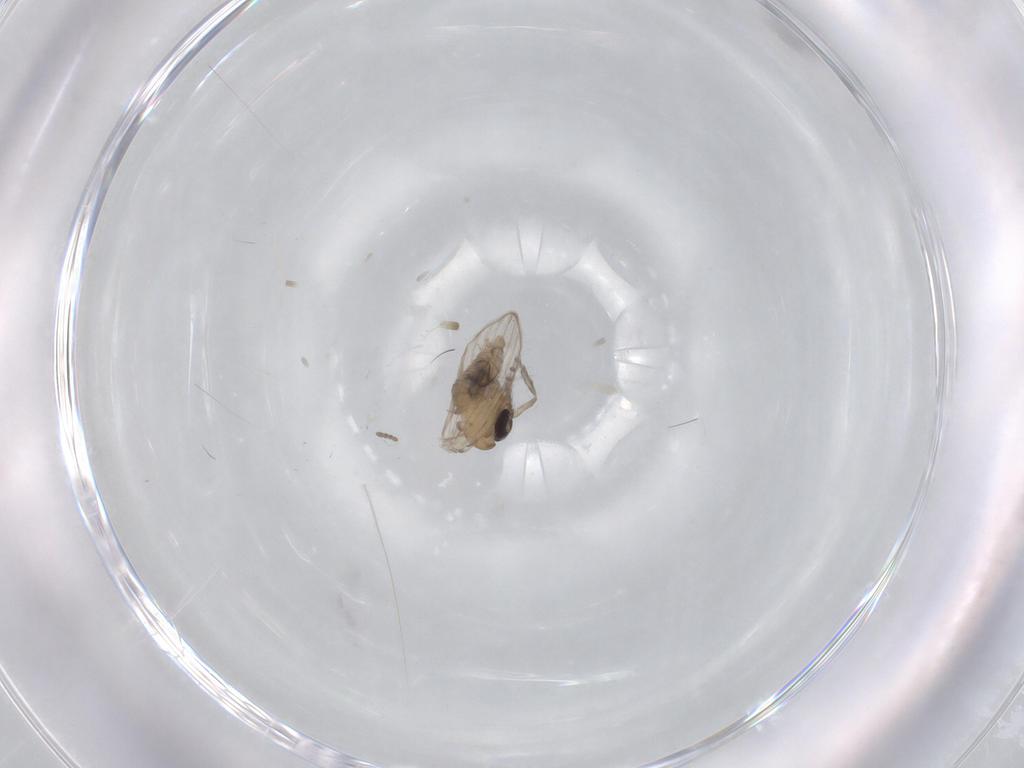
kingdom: Animalia
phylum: Arthropoda
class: Insecta
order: Diptera
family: Psychodidae
